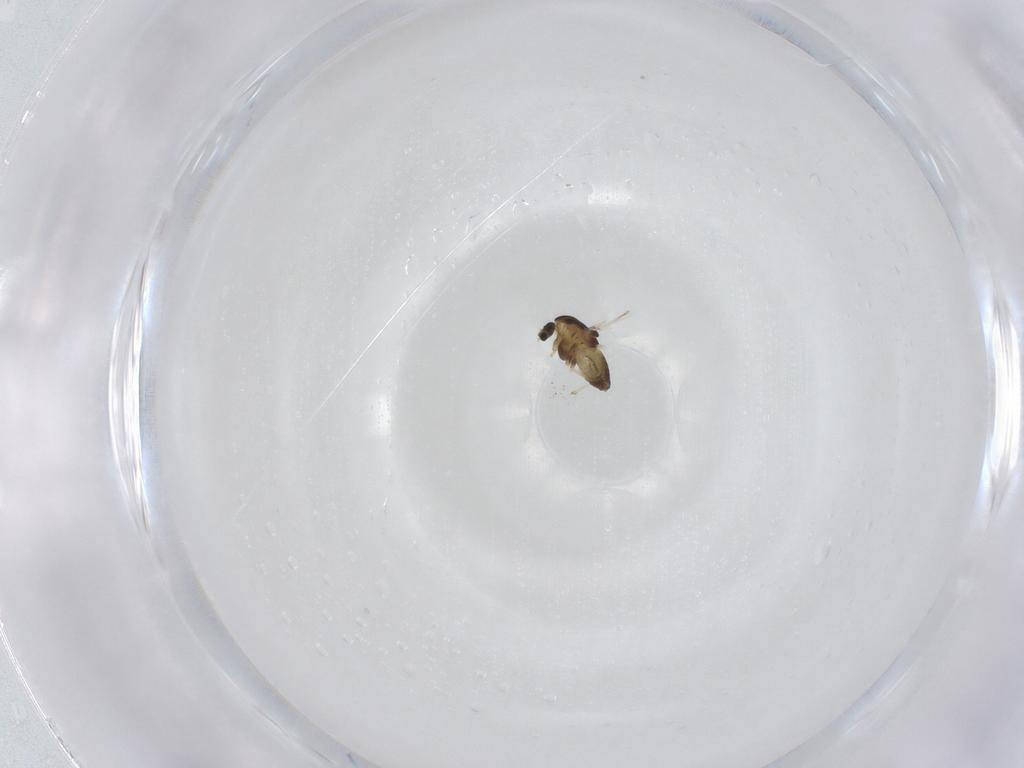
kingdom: Animalia
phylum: Arthropoda
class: Insecta
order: Diptera
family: Chironomidae
